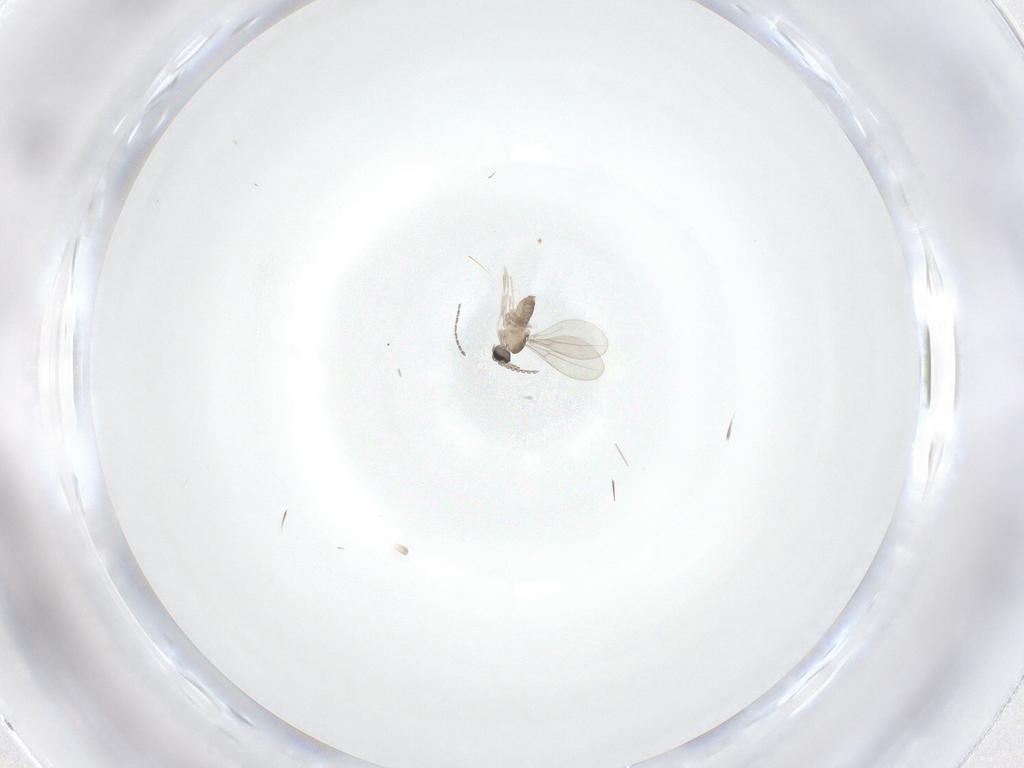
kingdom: Animalia
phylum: Arthropoda
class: Insecta
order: Diptera
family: Sciaridae
